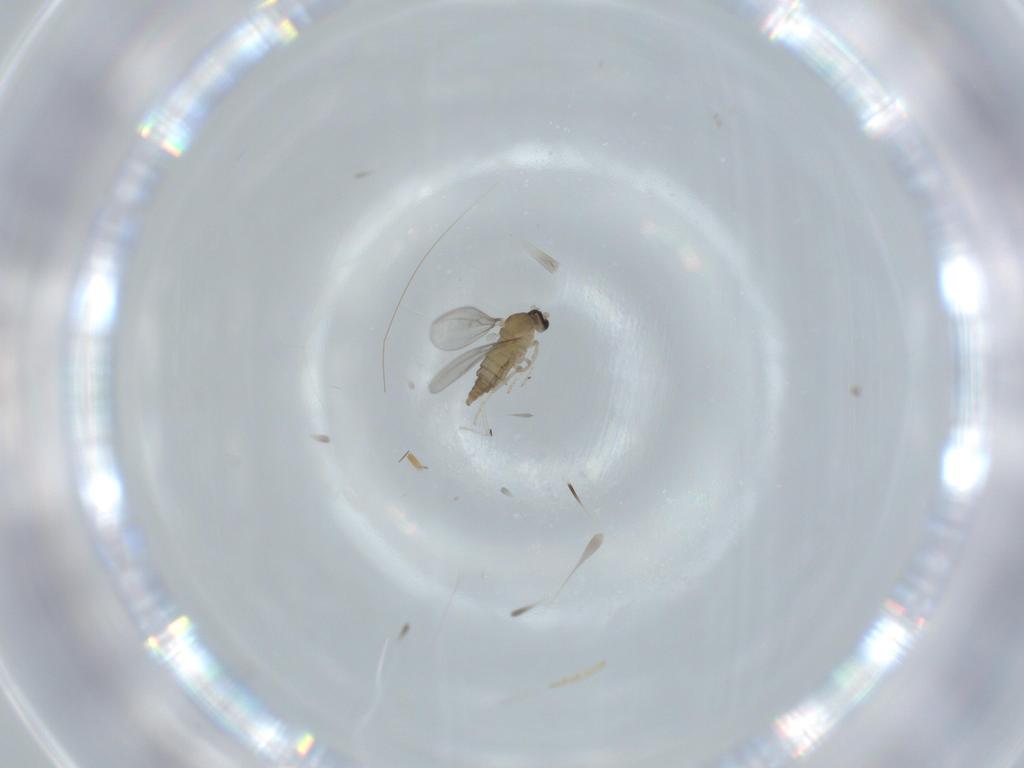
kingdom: Animalia
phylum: Arthropoda
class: Insecta
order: Diptera
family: Cecidomyiidae
